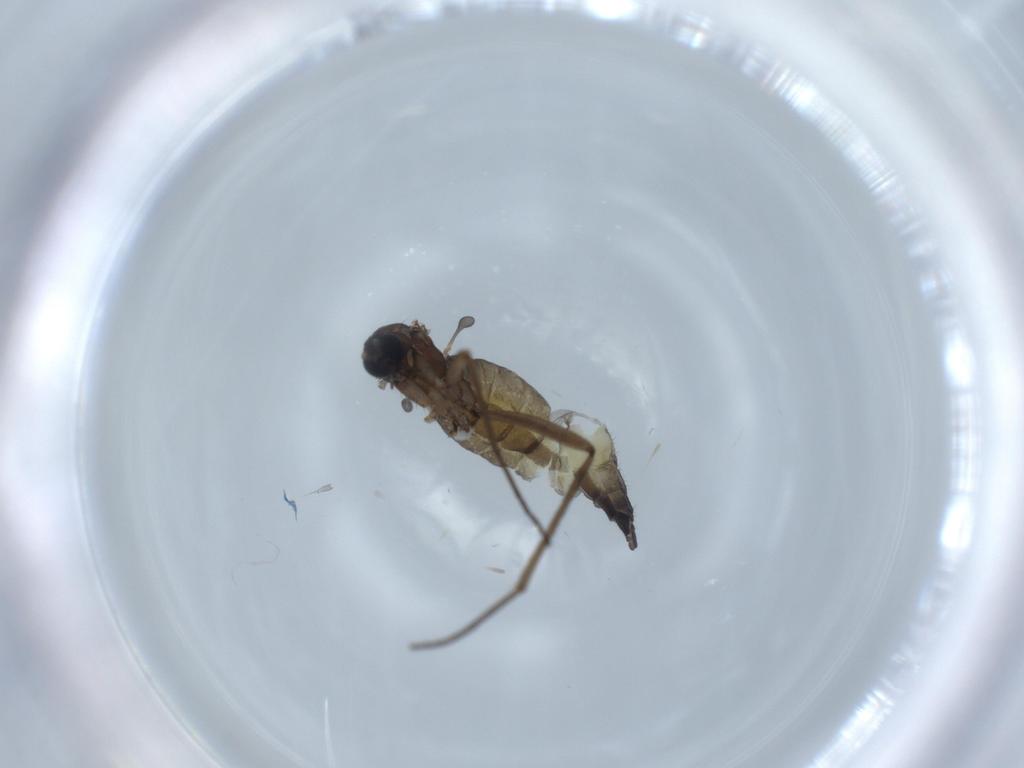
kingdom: Animalia
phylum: Arthropoda
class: Insecta
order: Diptera
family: Sciaridae
